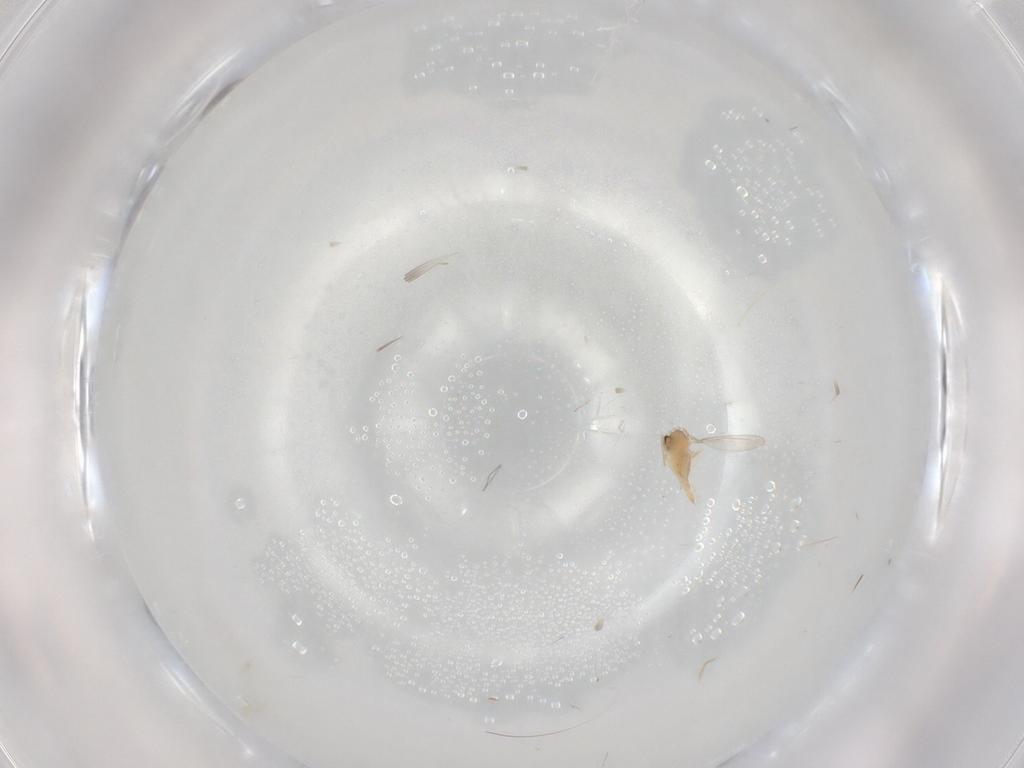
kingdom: Animalia
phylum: Arthropoda
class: Insecta
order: Diptera
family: Cecidomyiidae
